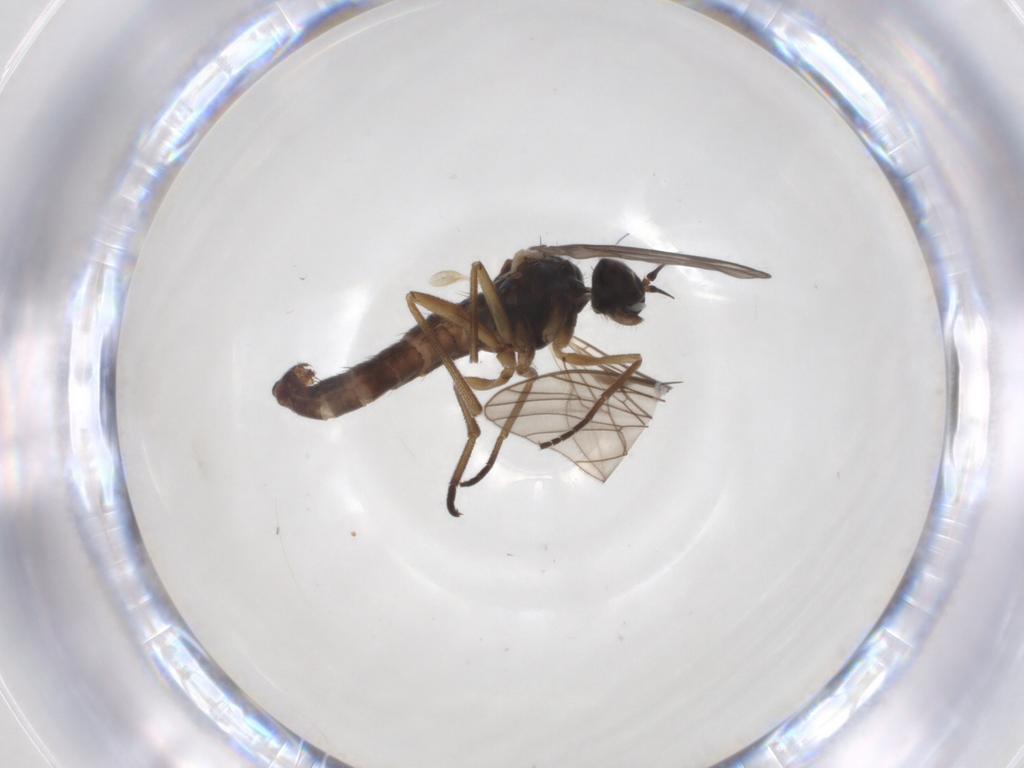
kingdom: Animalia
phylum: Arthropoda
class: Insecta
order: Diptera
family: Empididae
